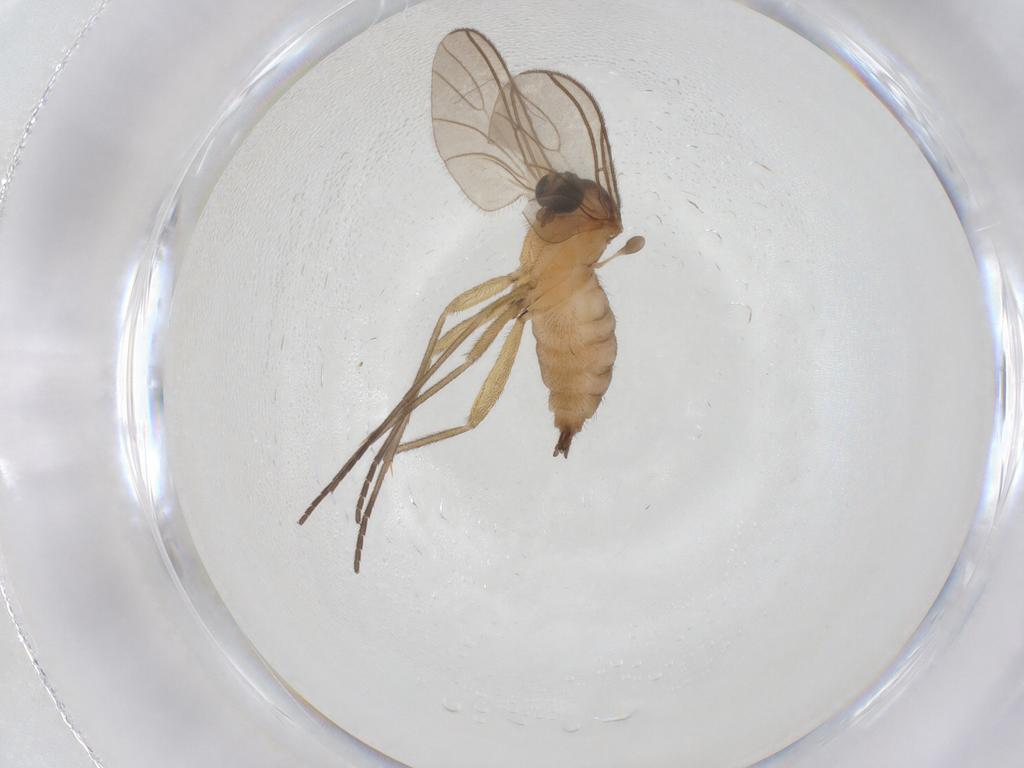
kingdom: Animalia
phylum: Arthropoda
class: Insecta
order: Diptera
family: Sciaridae
